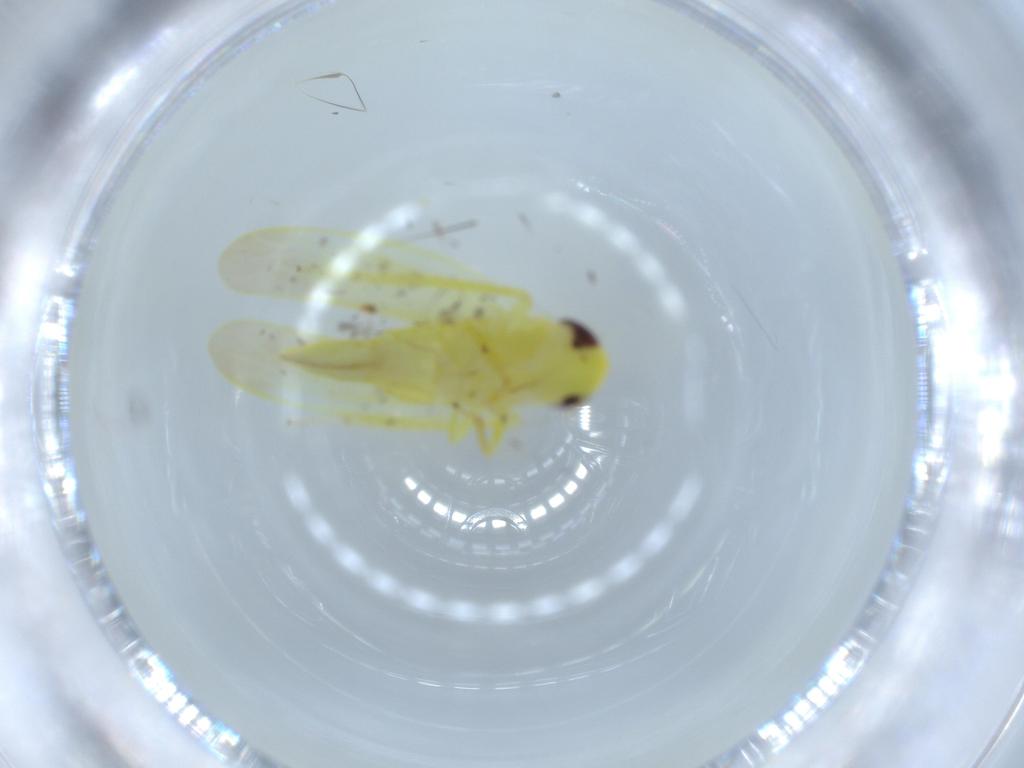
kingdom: Animalia
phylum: Arthropoda
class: Insecta
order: Hemiptera
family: Cicadellidae
